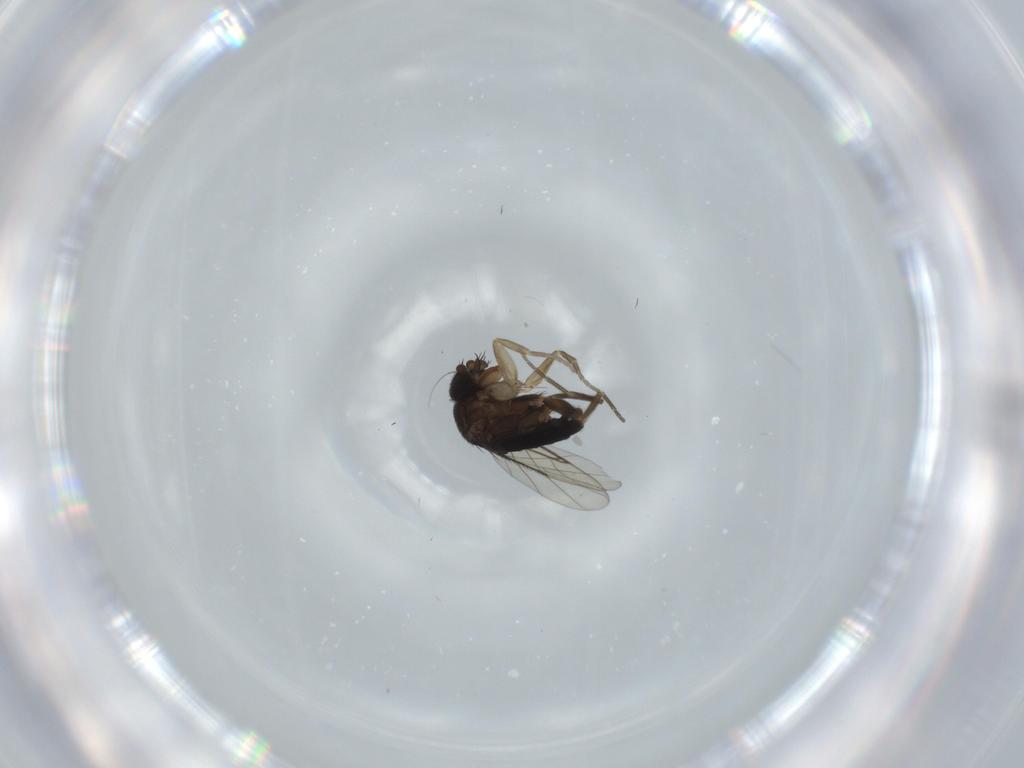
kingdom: Animalia
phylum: Arthropoda
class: Insecta
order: Diptera
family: Phoridae
